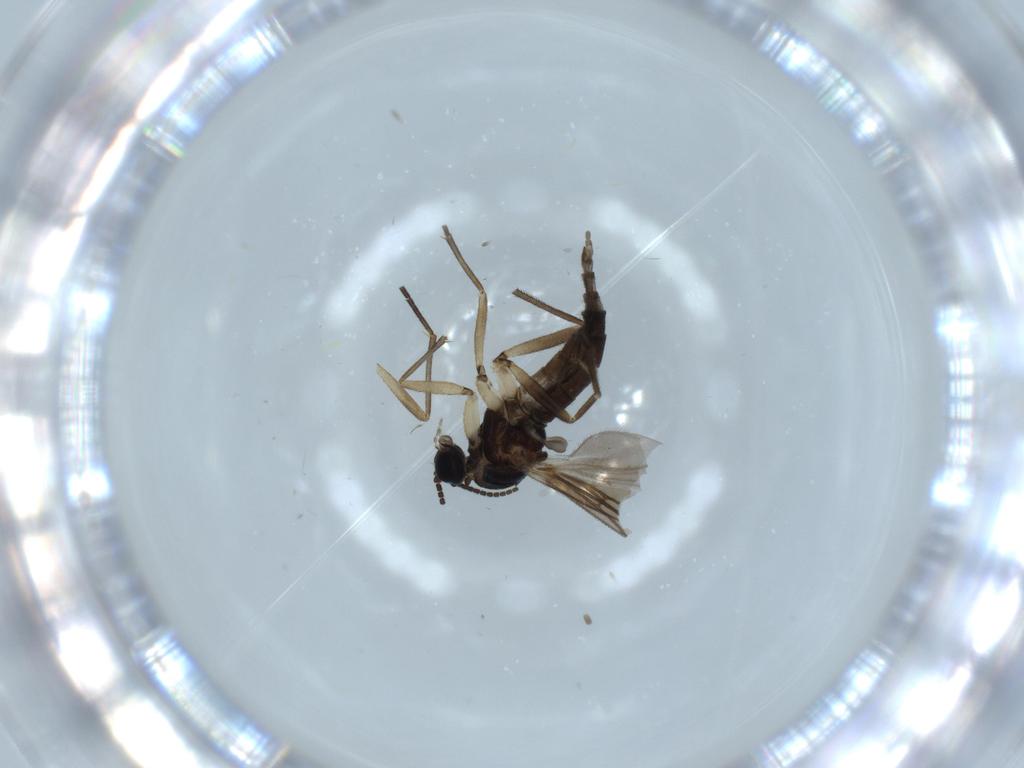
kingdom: Animalia
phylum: Arthropoda
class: Insecta
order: Diptera
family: Sciaridae
